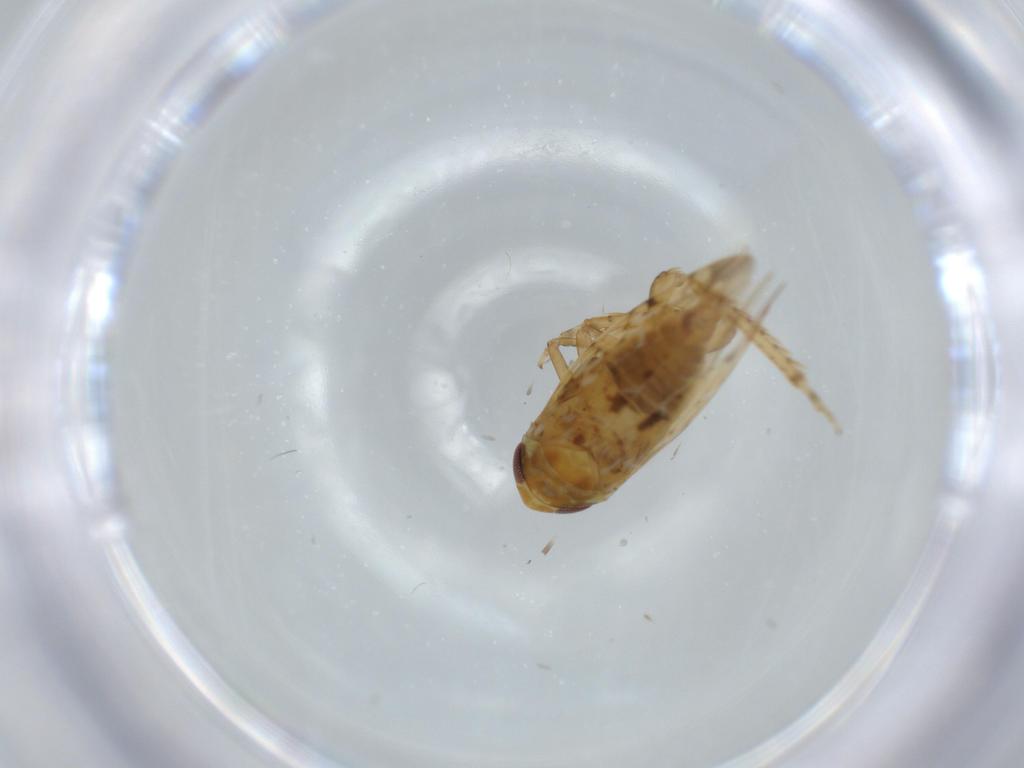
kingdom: Animalia
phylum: Arthropoda
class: Insecta
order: Hemiptera
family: Cicadellidae
